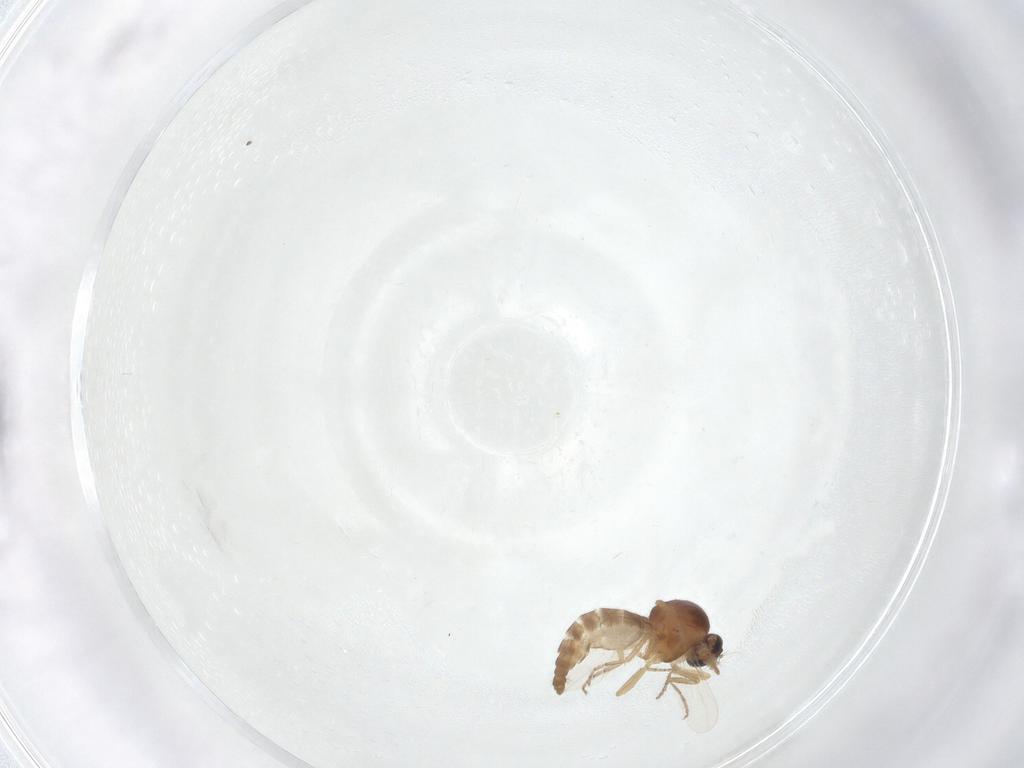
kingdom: Animalia
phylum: Arthropoda
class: Insecta
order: Diptera
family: Ceratopogonidae
